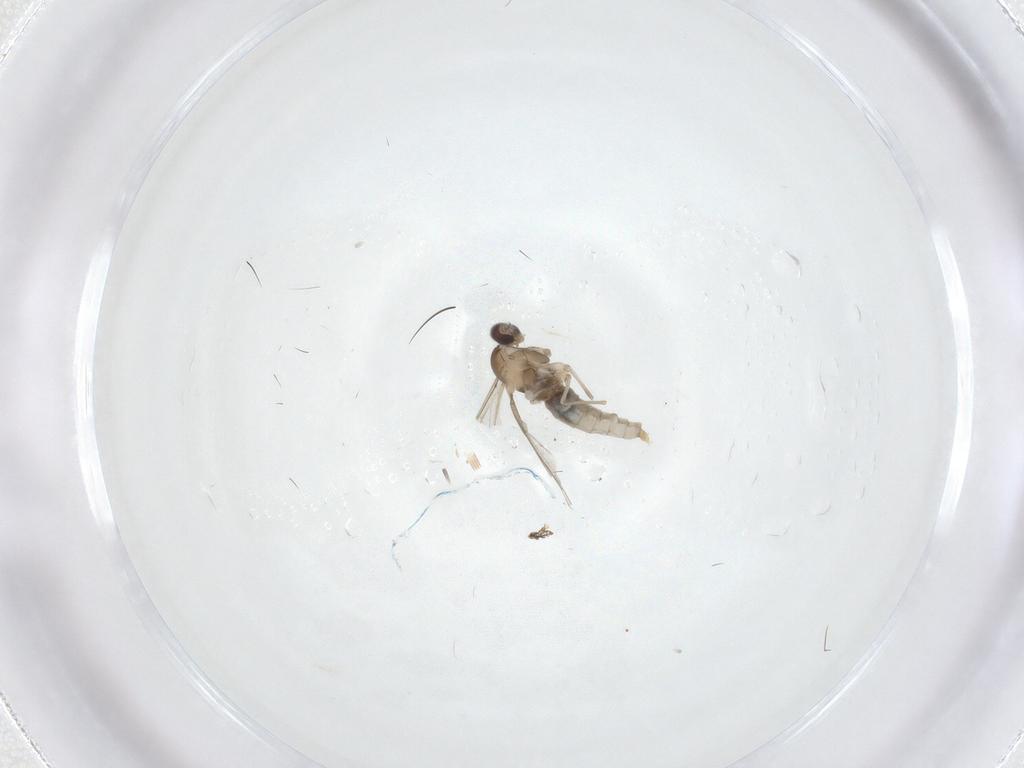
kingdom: Animalia
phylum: Arthropoda
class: Insecta
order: Diptera
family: Cecidomyiidae
